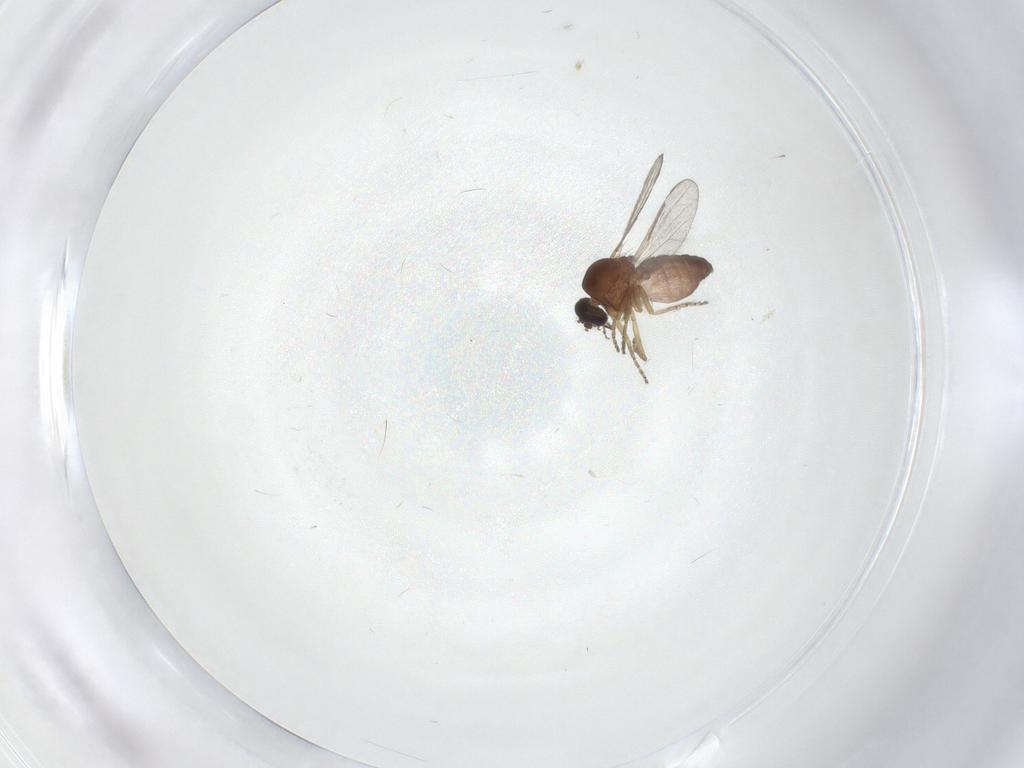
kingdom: Animalia
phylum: Arthropoda
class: Insecta
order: Diptera
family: Ceratopogonidae
